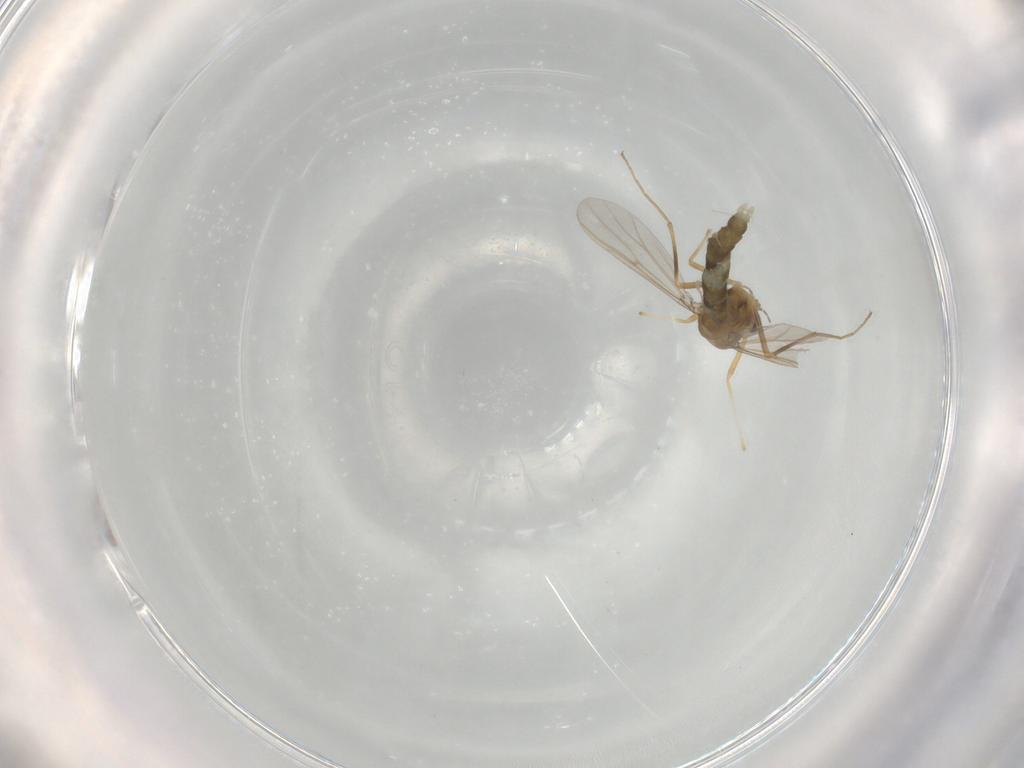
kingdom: Animalia
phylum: Arthropoda
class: Insecta
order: Diptera
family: Chironomidae
